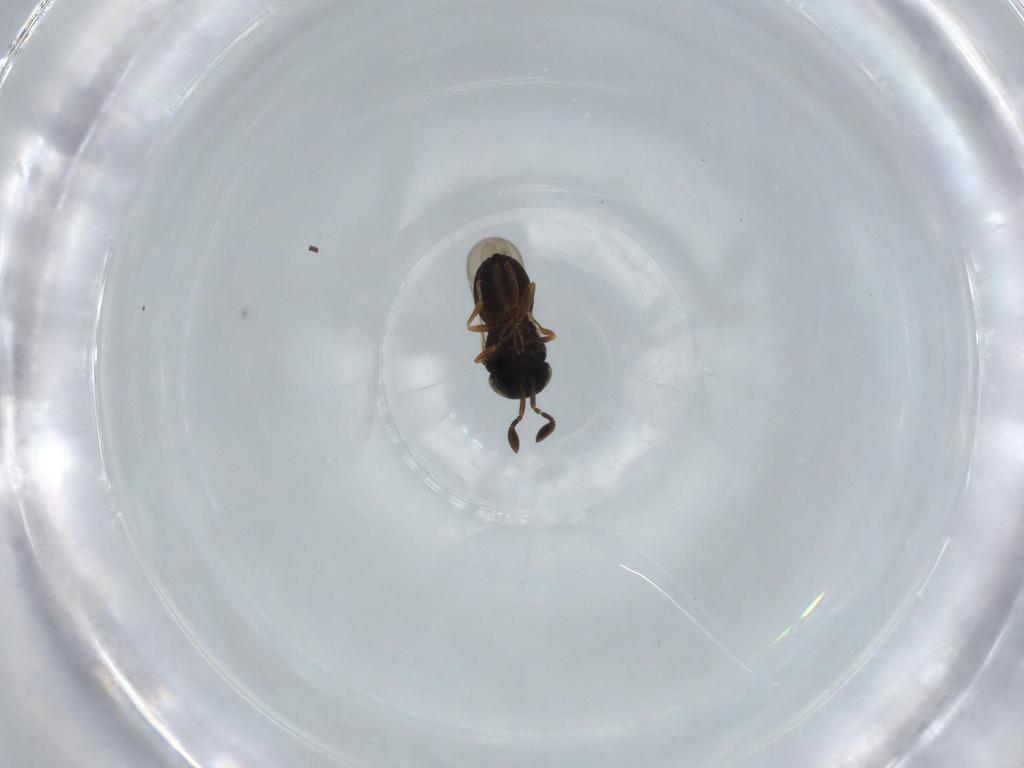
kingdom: Animalia
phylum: Arthropoda
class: Insecta
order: Hymenoptera
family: Scelionidae
